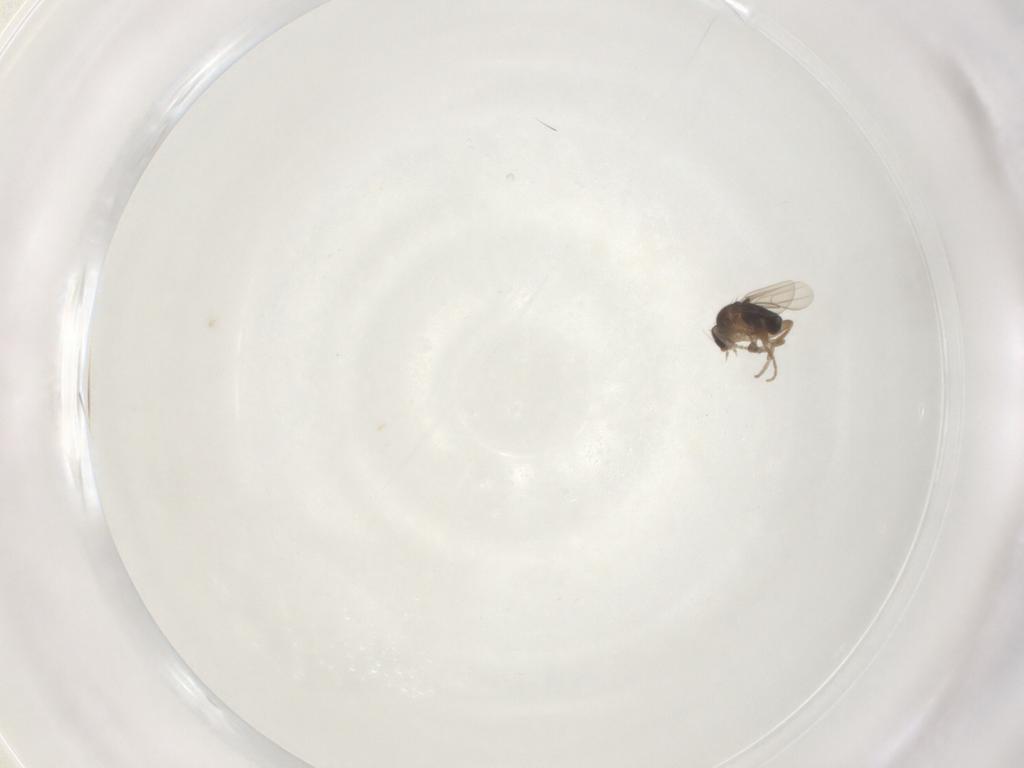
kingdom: Animalia
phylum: Arthropoda
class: Insecta
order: Diptera
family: Phoridae
